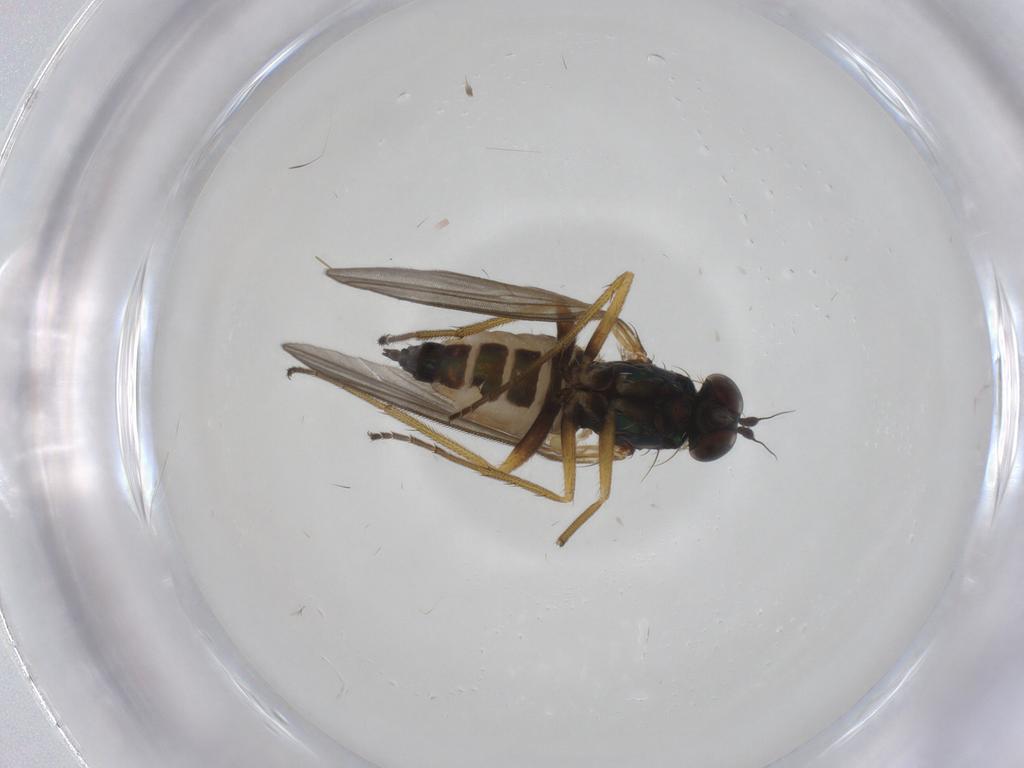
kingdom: Animalia
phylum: Arthropoda
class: Insecta
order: Diptera
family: Dolichopodidae
